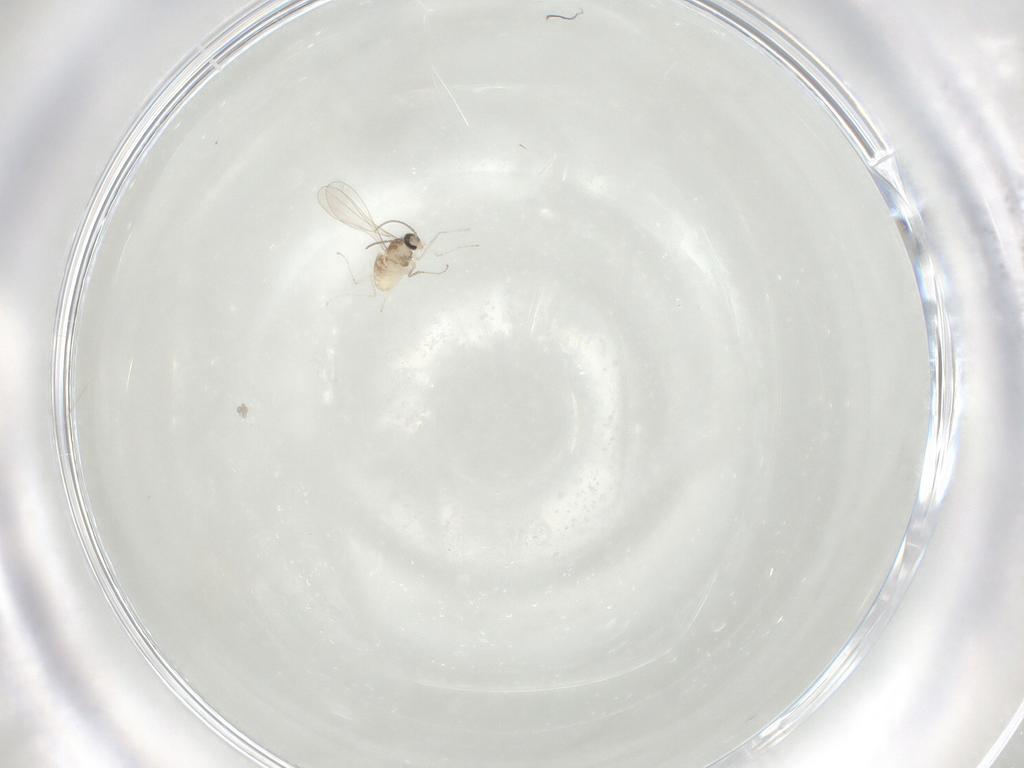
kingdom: Animalia
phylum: Arthropoda
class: Insecta
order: Diptera
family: Cecidomyiidae
